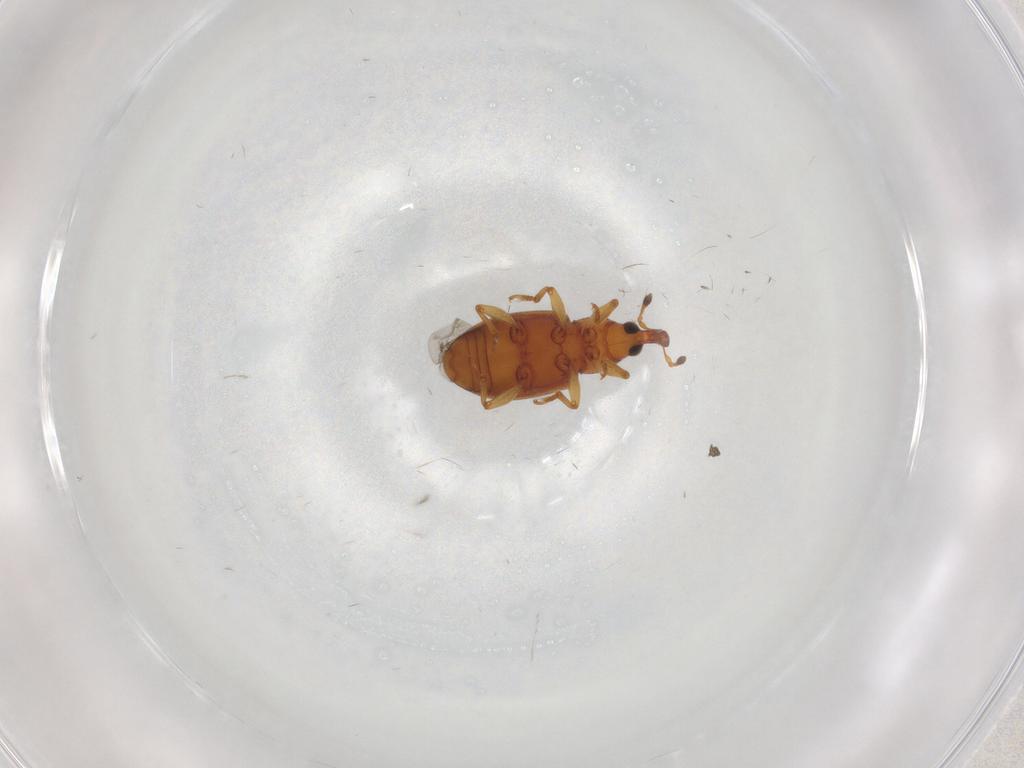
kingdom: Animalia
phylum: Arthropoda
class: Insecta
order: Coleoptera
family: Curculionidae
